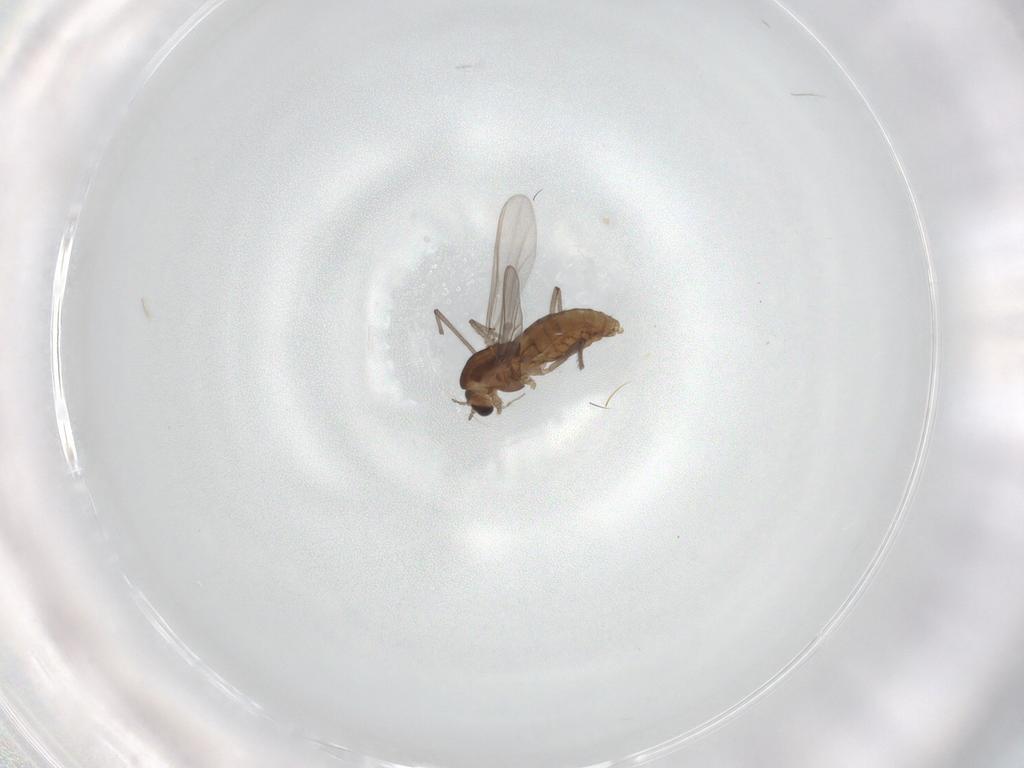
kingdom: Animalia
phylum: Arthropoda
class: Insecta
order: Diptera
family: Chironomidae
